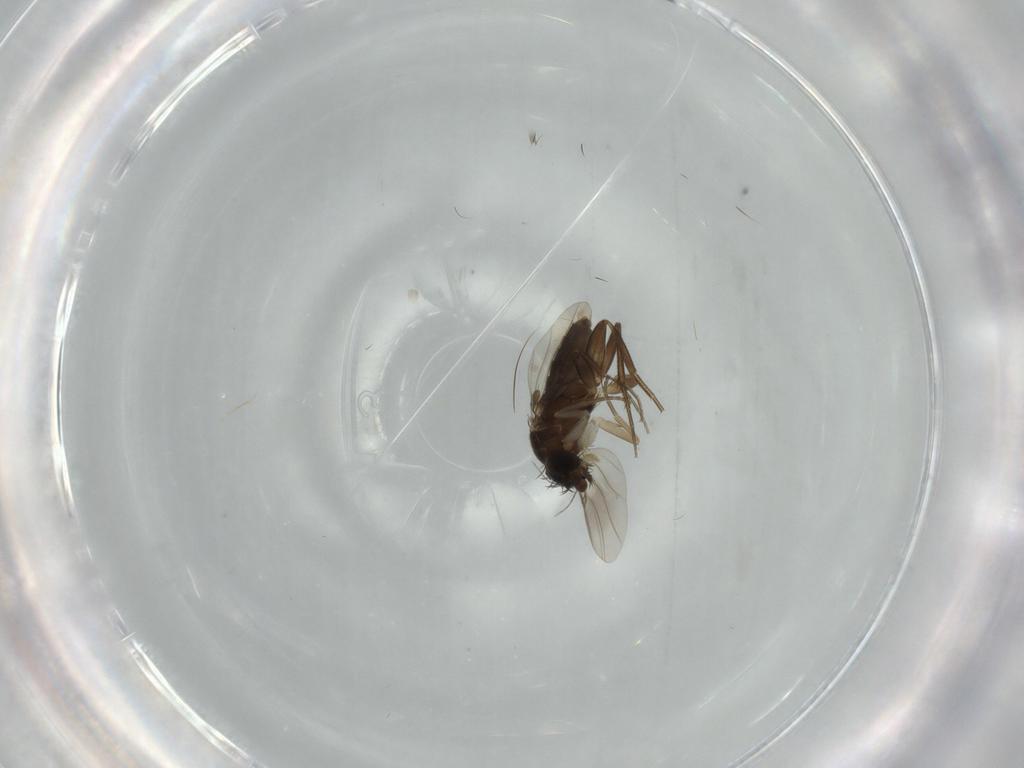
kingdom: Animalia
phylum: Arthropoda
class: Insecta
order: Diptera
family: Phoridae
